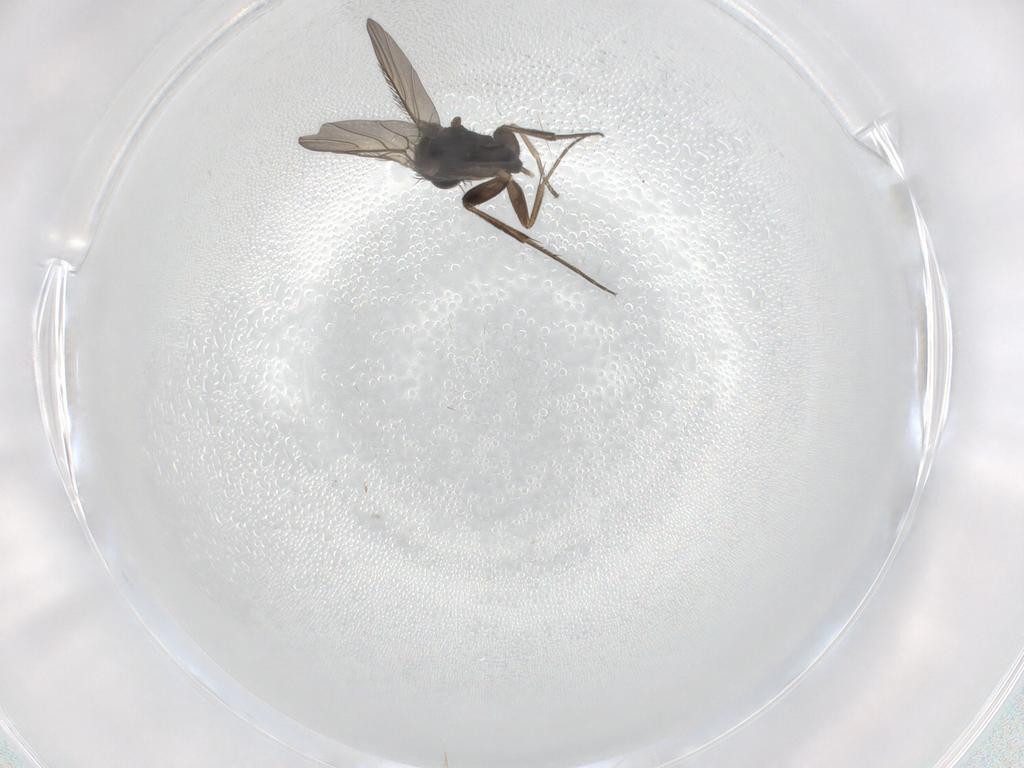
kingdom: Animalia
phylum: Arthropoda
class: Insecta
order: Diptera
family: Phoridae
